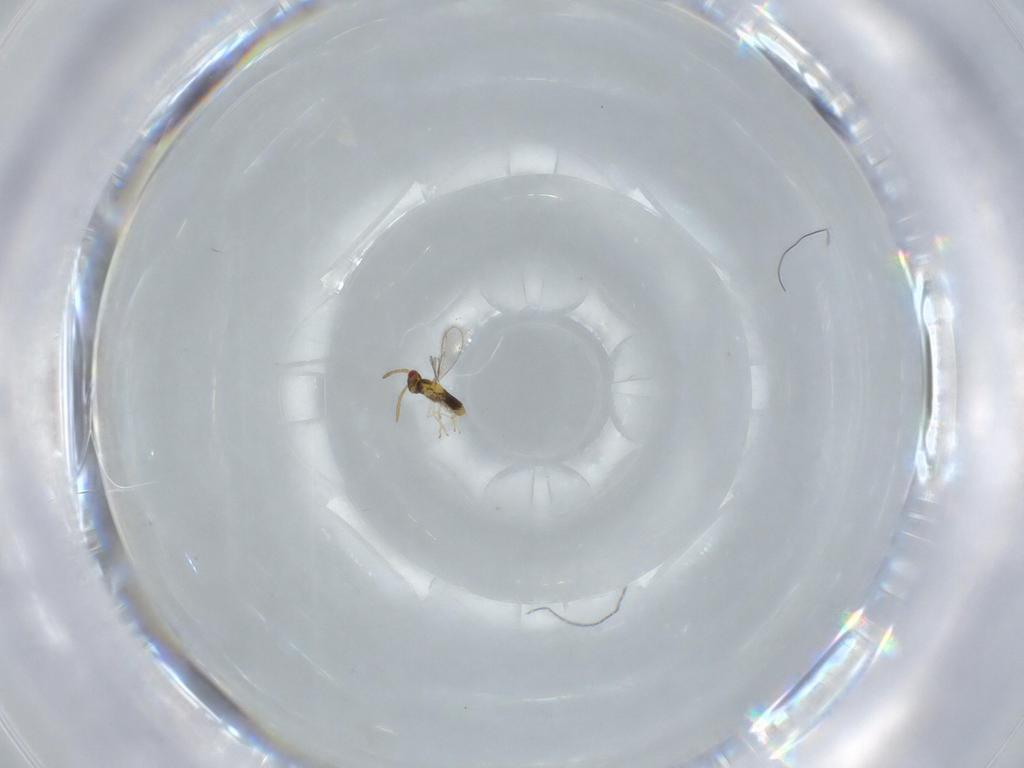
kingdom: Animalia
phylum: Arthropoda
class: Insecta
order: Hymenoptera
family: Aphelinidae
